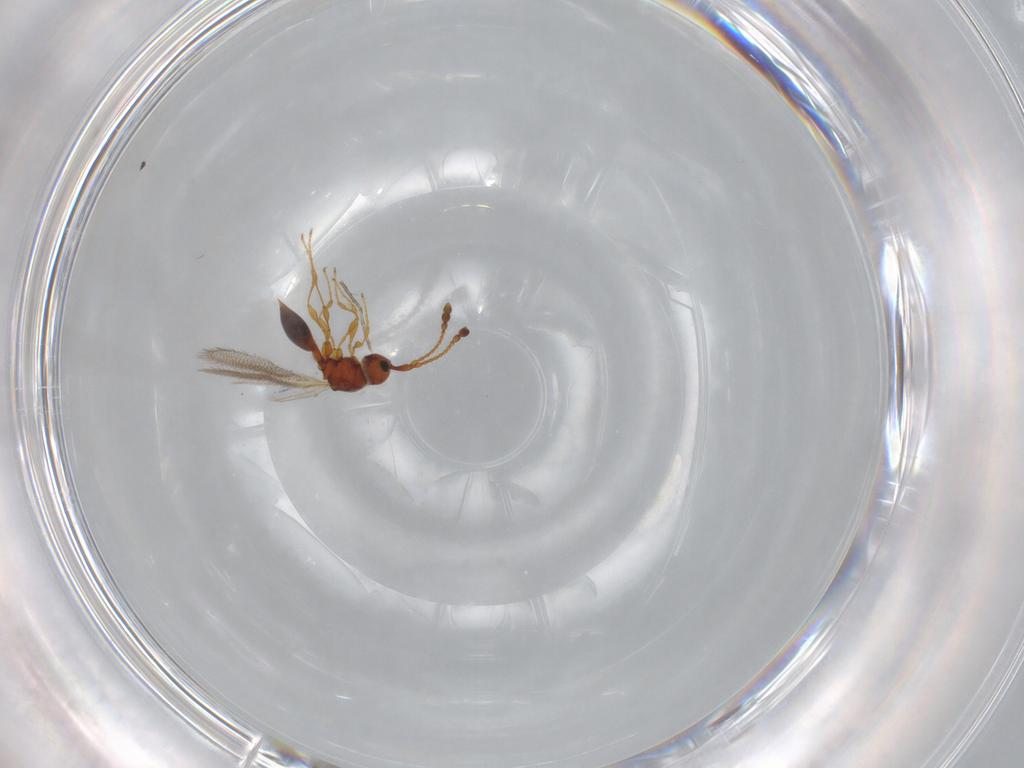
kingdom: Animalia
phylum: Arthropoda
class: Insecta
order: Hymenoptera
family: Diapriidae
